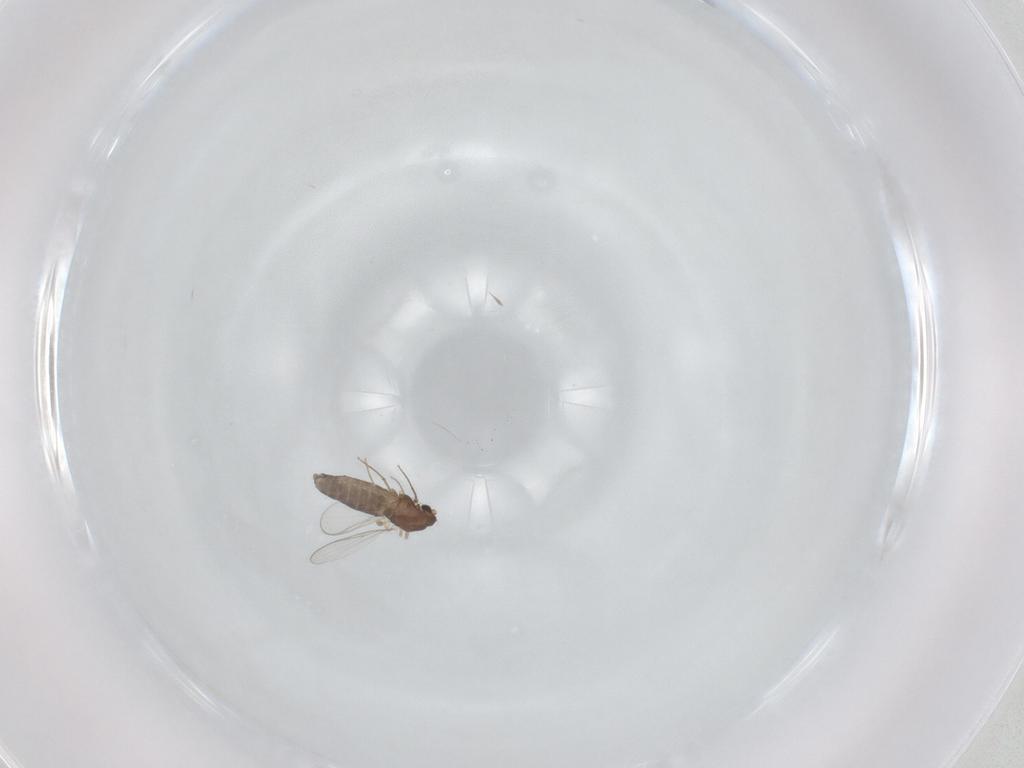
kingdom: Animalia
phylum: Arthropoda
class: Insecta
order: Diptera
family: Chironomidae
